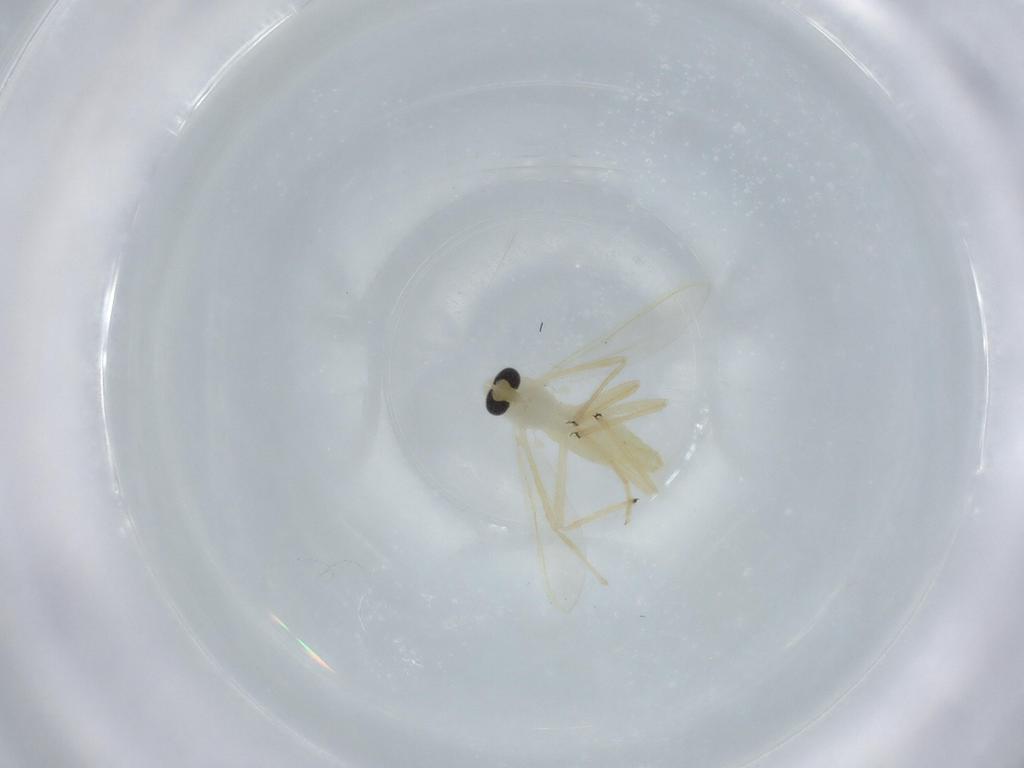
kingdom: Animalia
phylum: Arthropoda
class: Insecta
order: Diptera
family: Chironomidae
